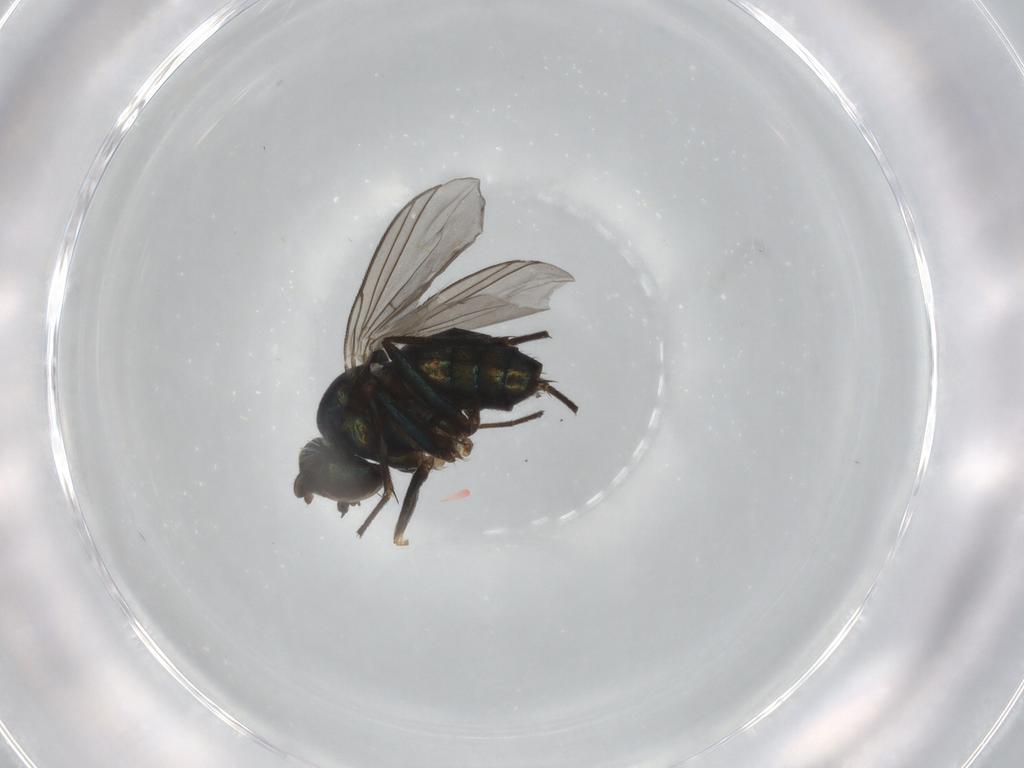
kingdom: Animalia
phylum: Arthropoda
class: Insecta
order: Diptera
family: Dolichopodidae
